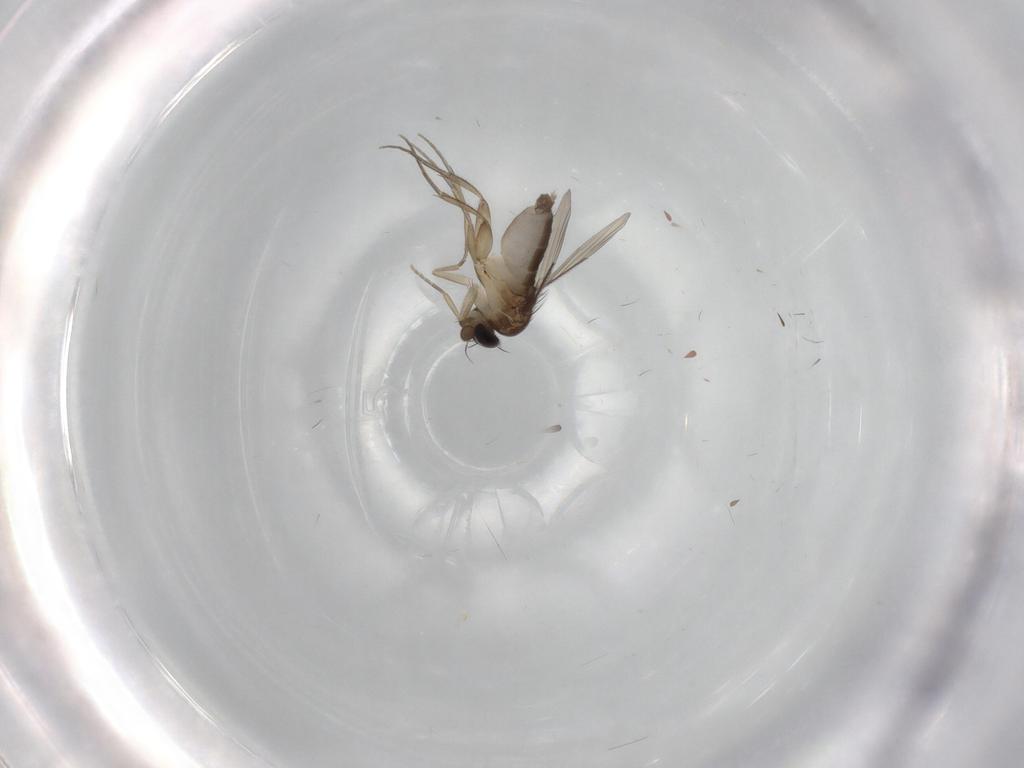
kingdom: Animalia
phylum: Arthropoda
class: Insecta
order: Diptera
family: Phoridae
